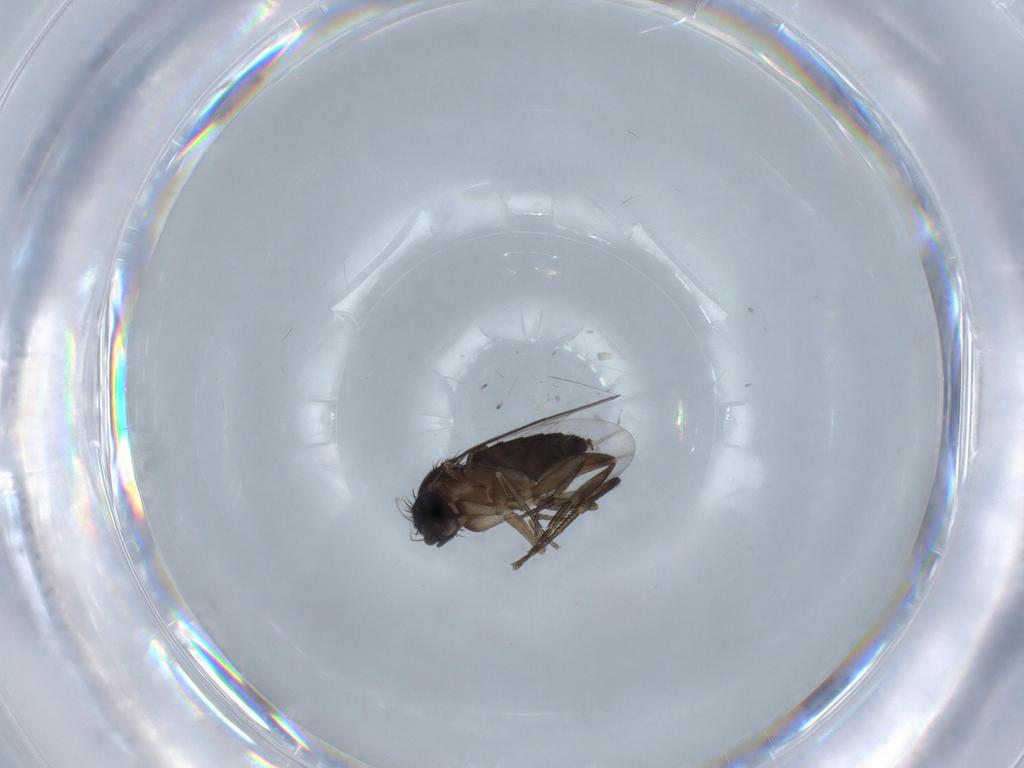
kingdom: Animalia
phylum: Arthropoda
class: Insecta
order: Diptera
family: Phoridae
